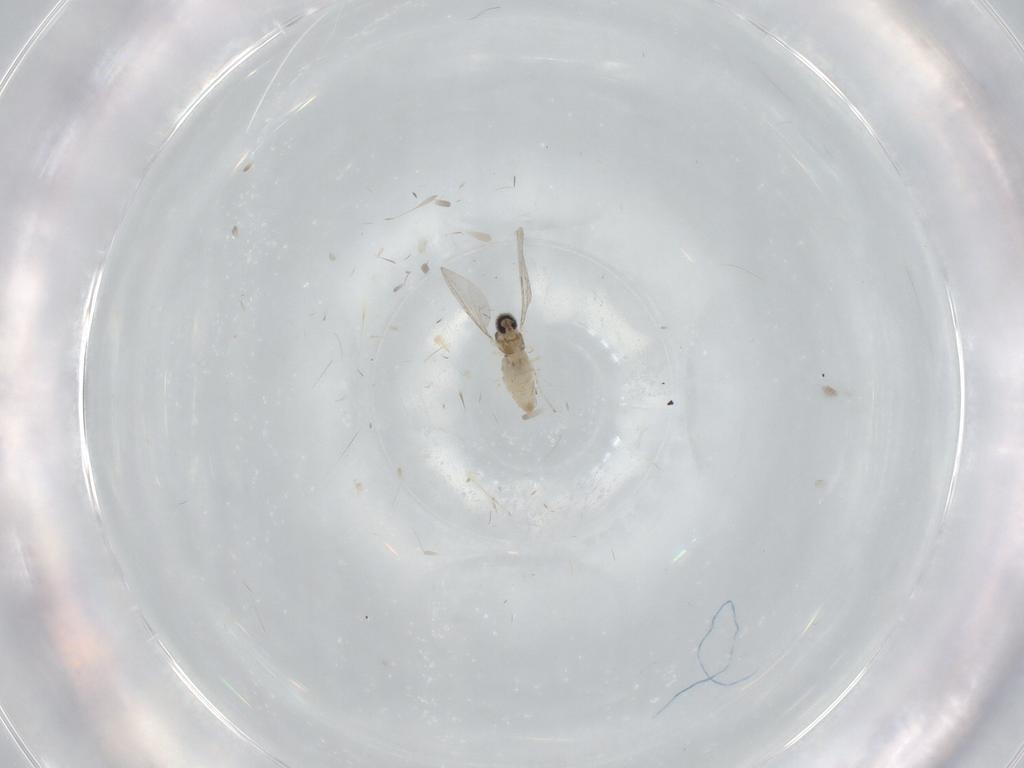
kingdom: Animalia
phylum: Arthropoda
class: Insecta
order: Diptera
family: Cecidomyiidae
